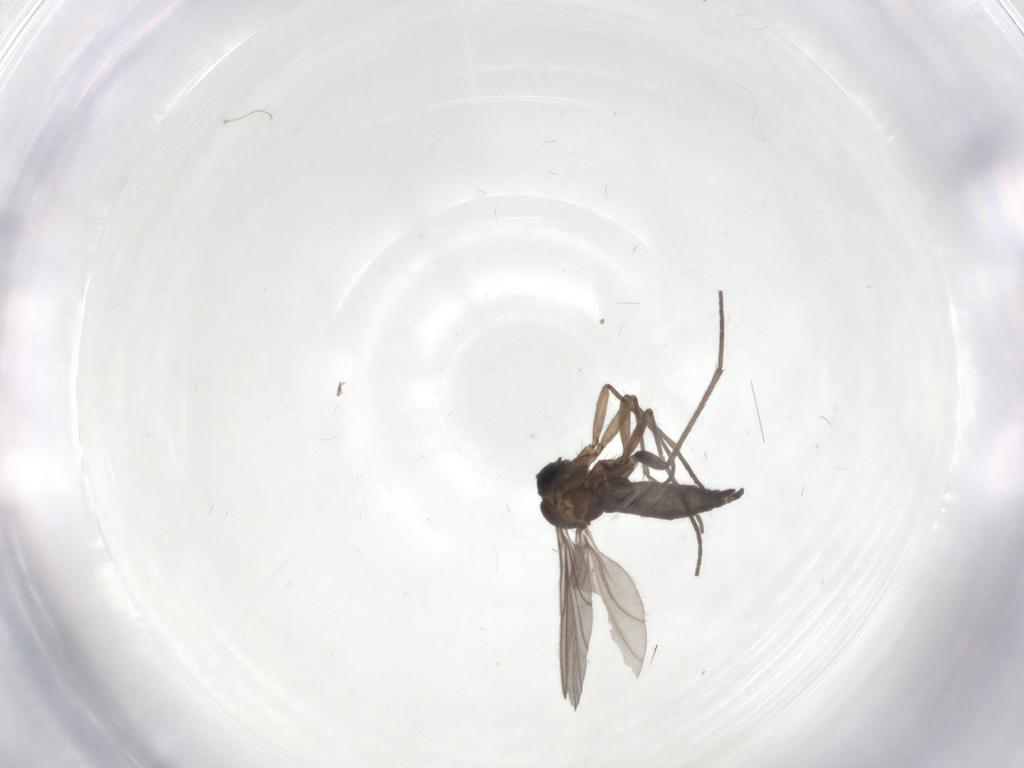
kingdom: Animalia
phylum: Arthropoda
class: Insecta
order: Diptera
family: Sciaridae
